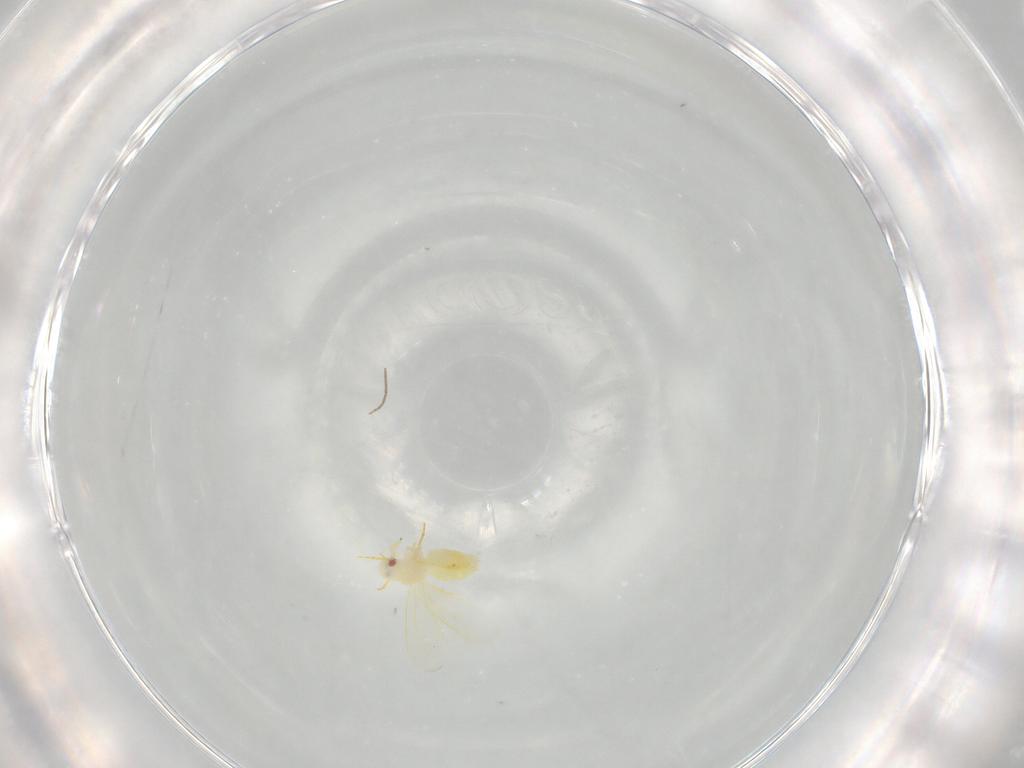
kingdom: Animalia
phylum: Arthropoda
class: Insecta
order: Hemiptera
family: Aleyrodidae
